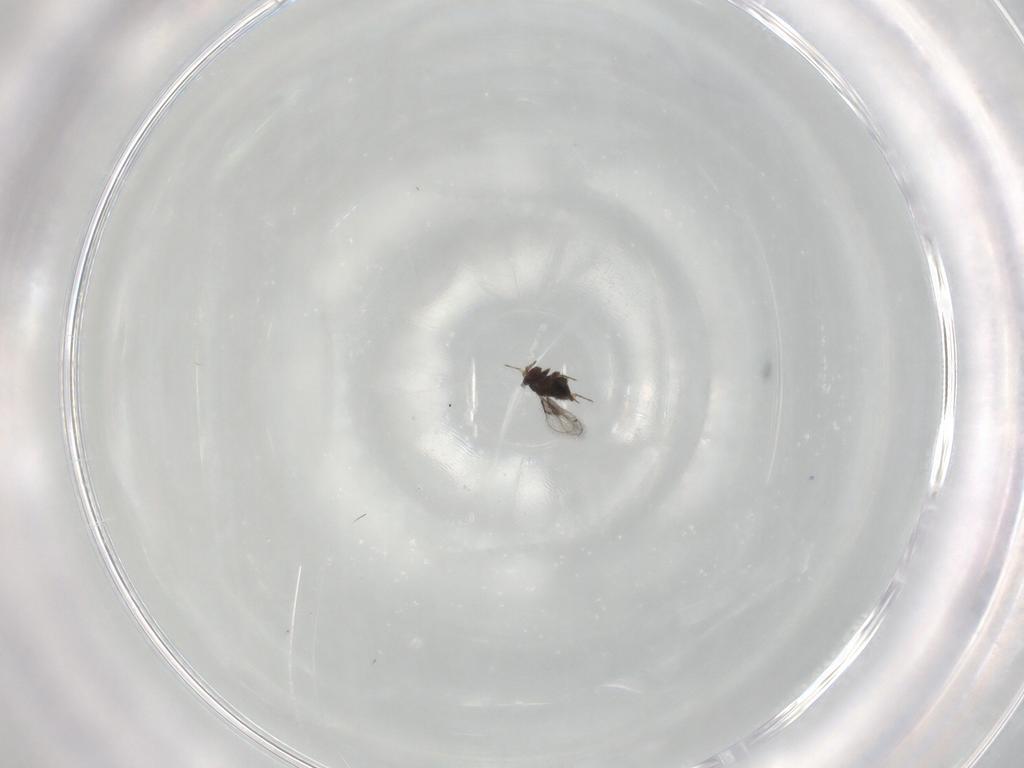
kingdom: Animalia
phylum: Arthropoda
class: Insecta
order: Hymenoptera
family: Trichogrammatidae
